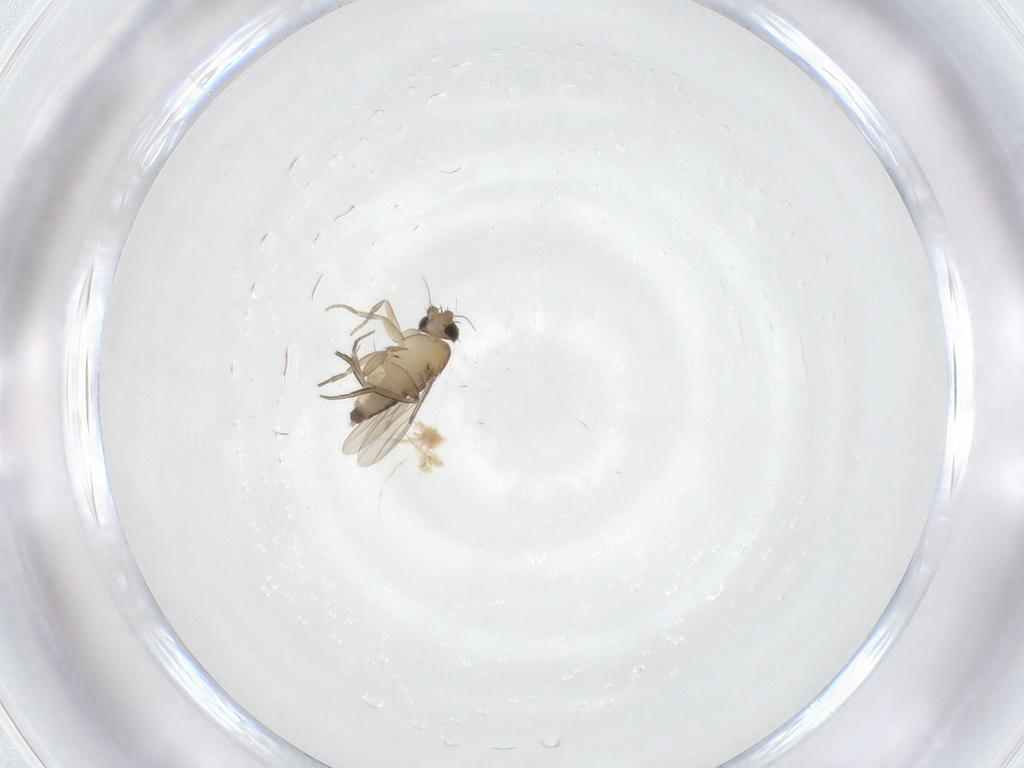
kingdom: Animalia
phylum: Arthropoda
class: Insecta
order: Diptera
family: Phoridae
